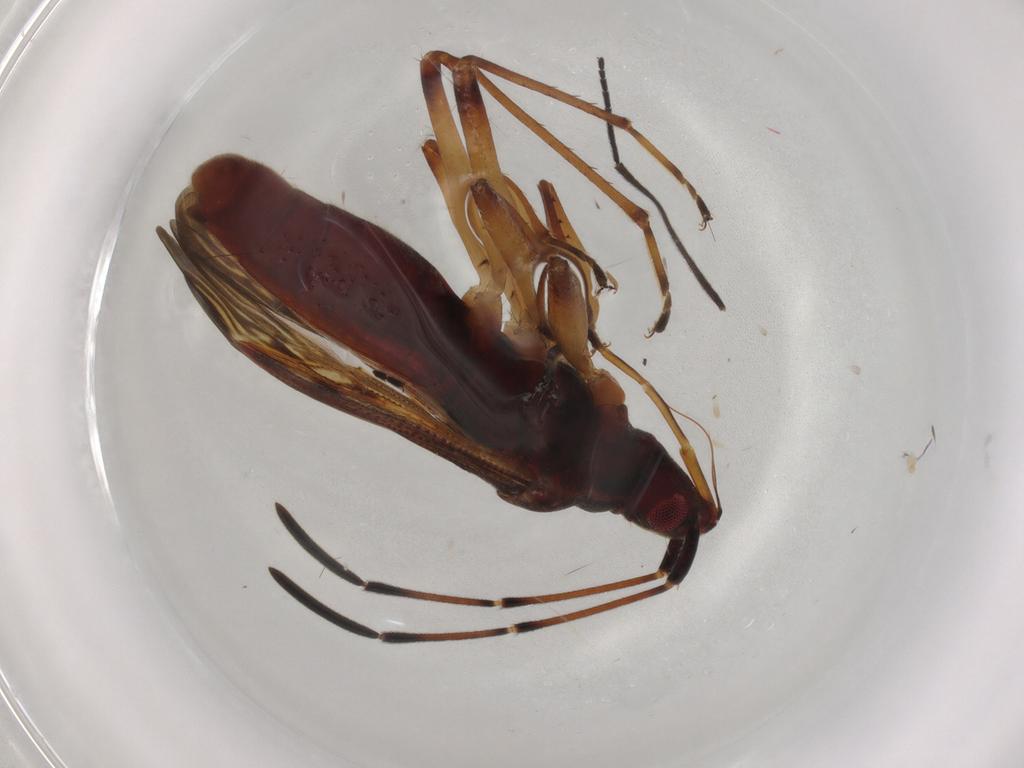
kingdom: Animalia
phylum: Arthropoda
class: Insecta
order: Hemiptera
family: Rhyparochromidae
